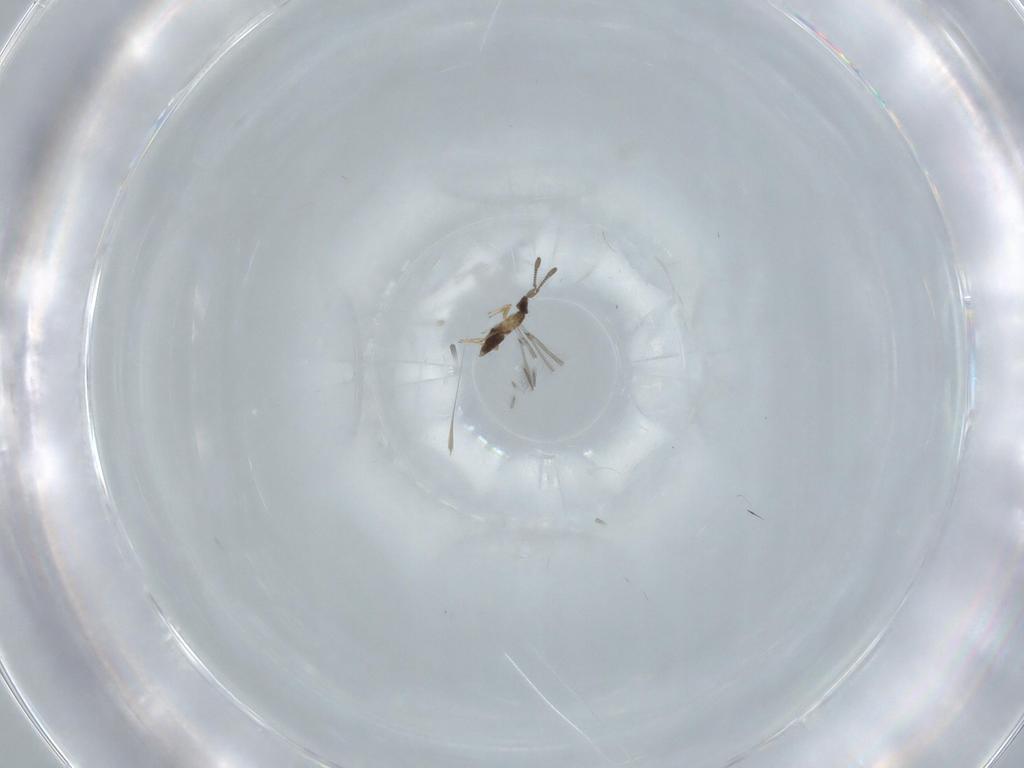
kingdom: Animalia
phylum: Arthropoda
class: Insecta
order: Hymenoptera
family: Mymaridae
